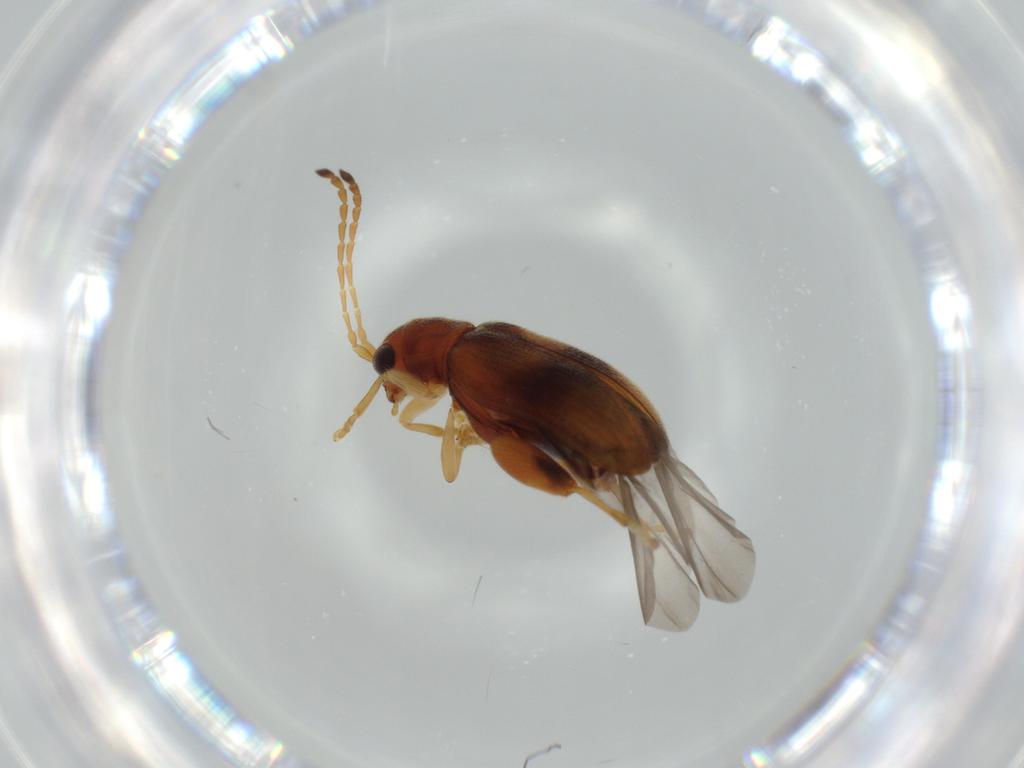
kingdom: Animalia
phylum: Arthropoda
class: Insecta
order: Coleoptera
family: Chrysomelidae
